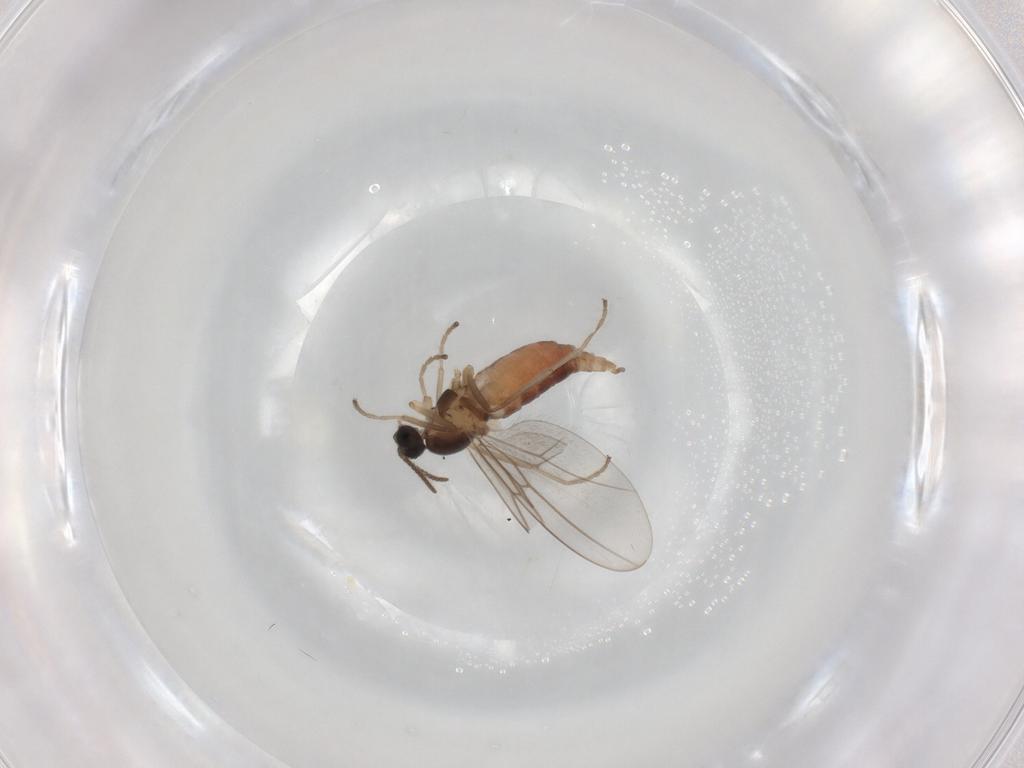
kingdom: Animalia
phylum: Arthropoda
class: Insecta
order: Diptera
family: Cecidomyiidae
